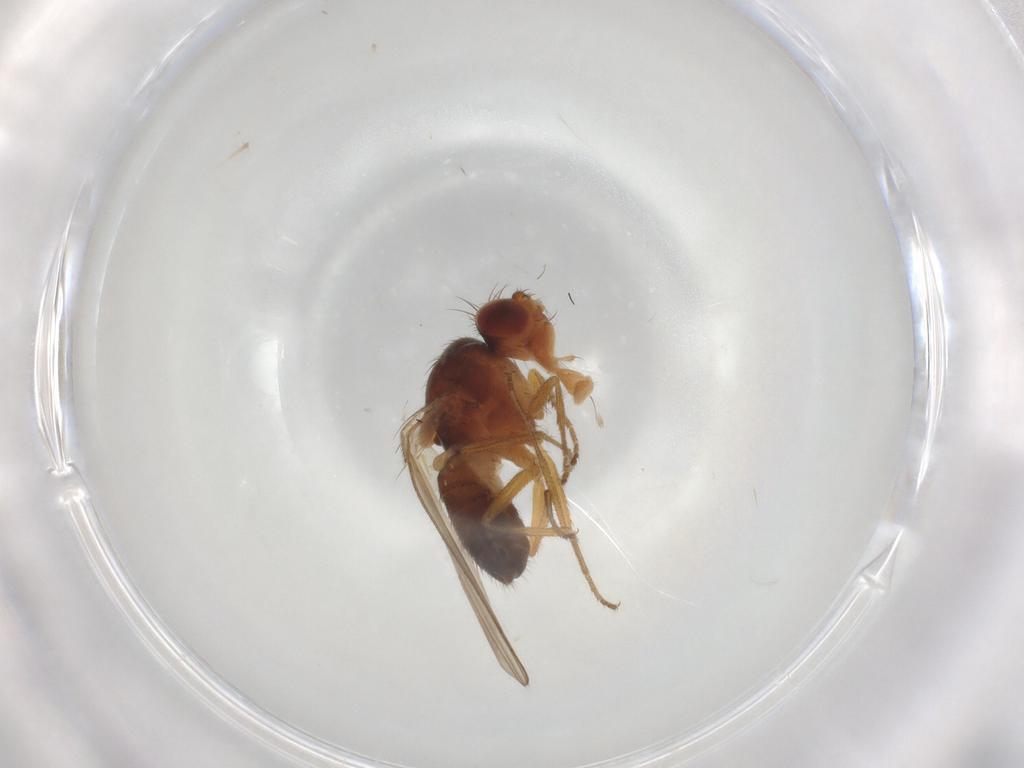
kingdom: Animalia
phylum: Arthropoda
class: Insecta
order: Diptera
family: Drosophilidae
